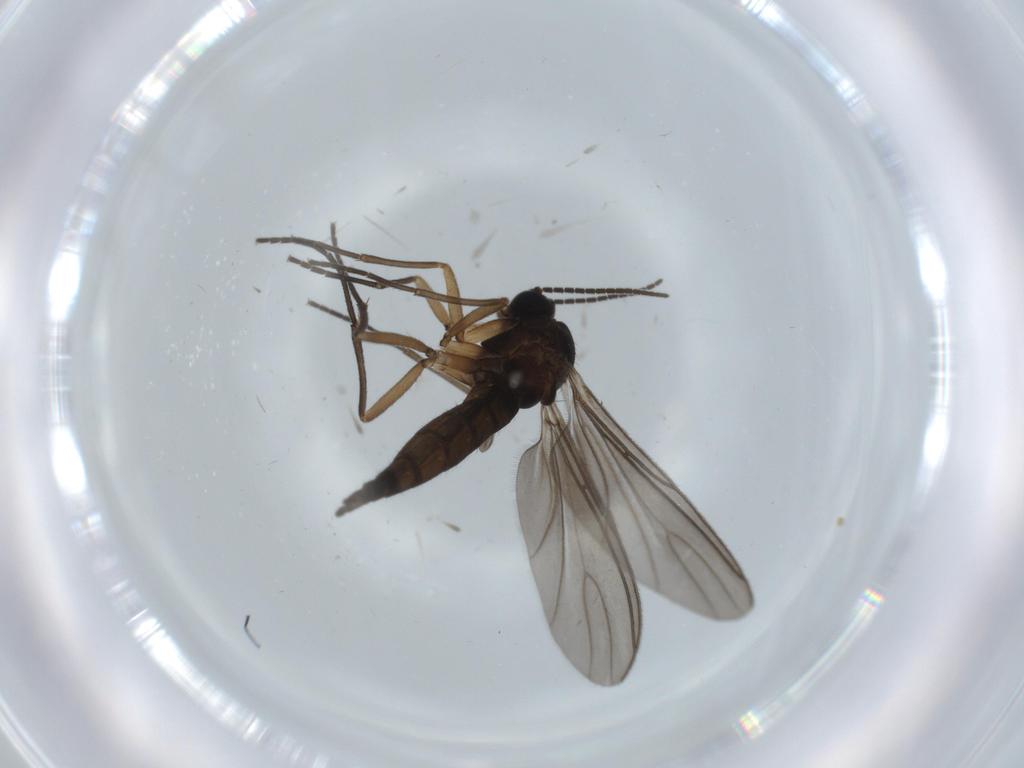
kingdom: Animalia
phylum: Arthropoda
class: Insecta
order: Diptera
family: Sciaridae
